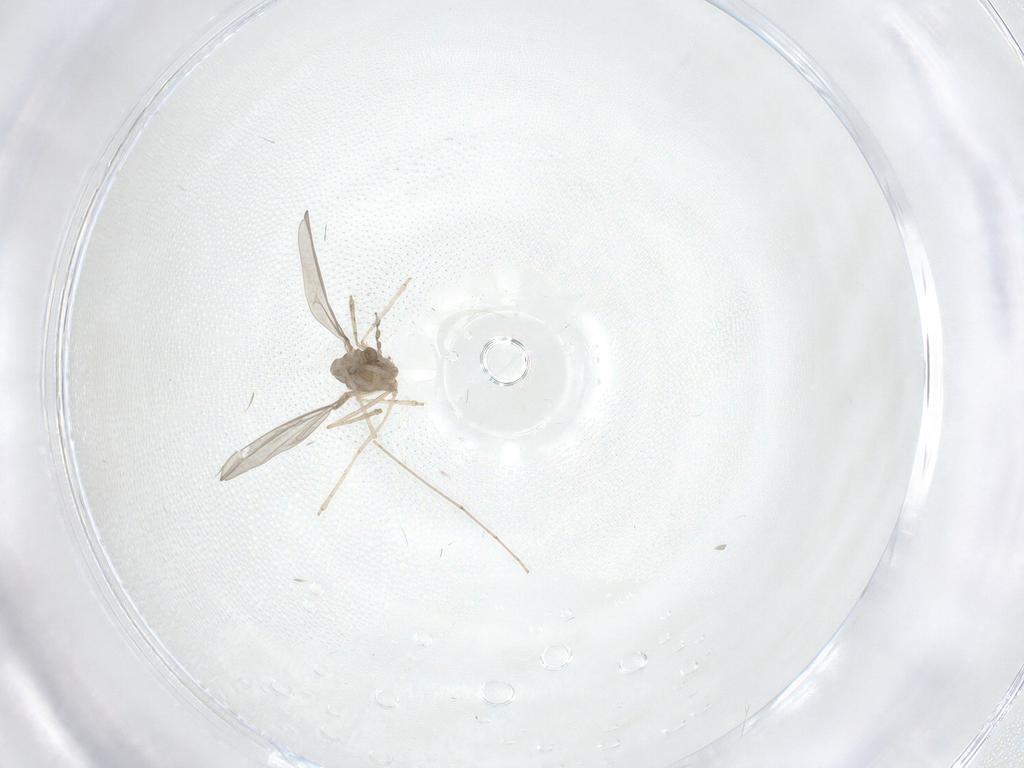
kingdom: Animalia
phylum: Arthropoda
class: Insecta
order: Diptera
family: Cecidomyiidae
